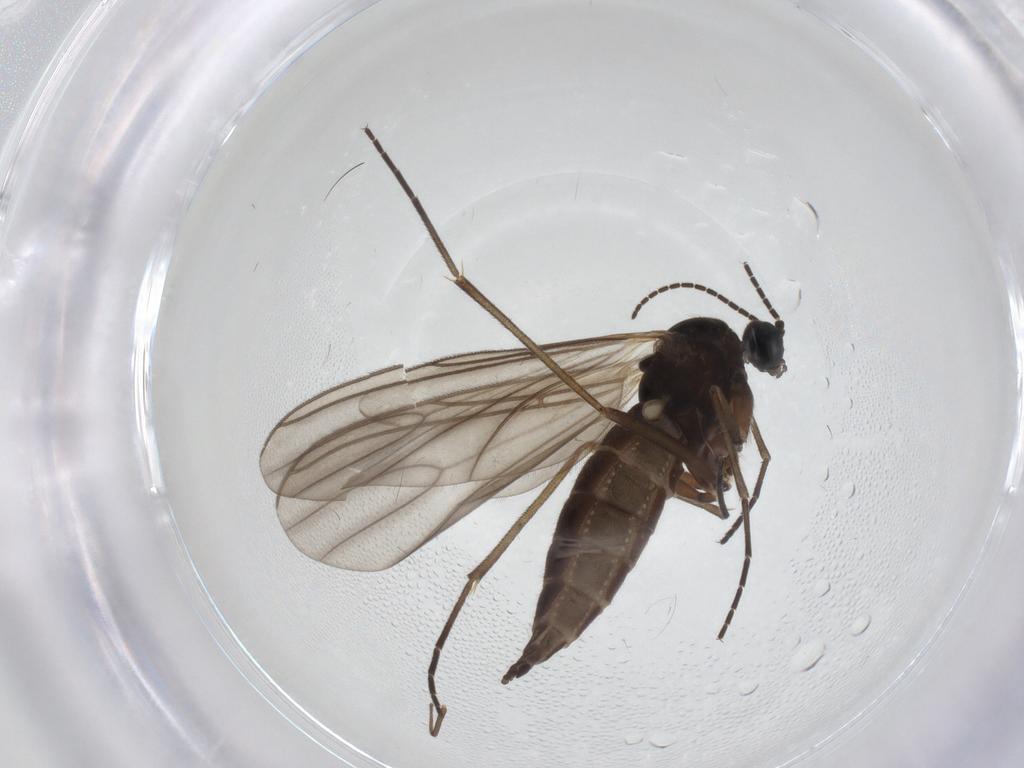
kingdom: Animalia
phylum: Arthropoda
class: Insecta
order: Diptera
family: Sciaridae
